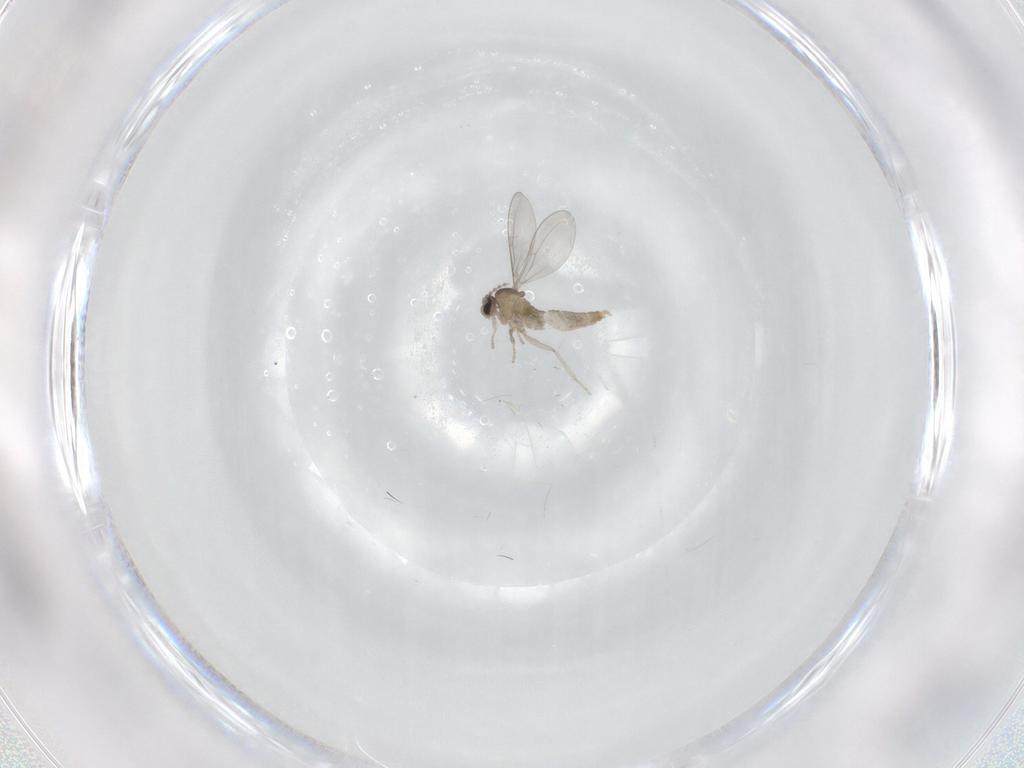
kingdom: Animalia
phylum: Arthropoda
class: Insecta
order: Diptera
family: Cecidomyiidae
